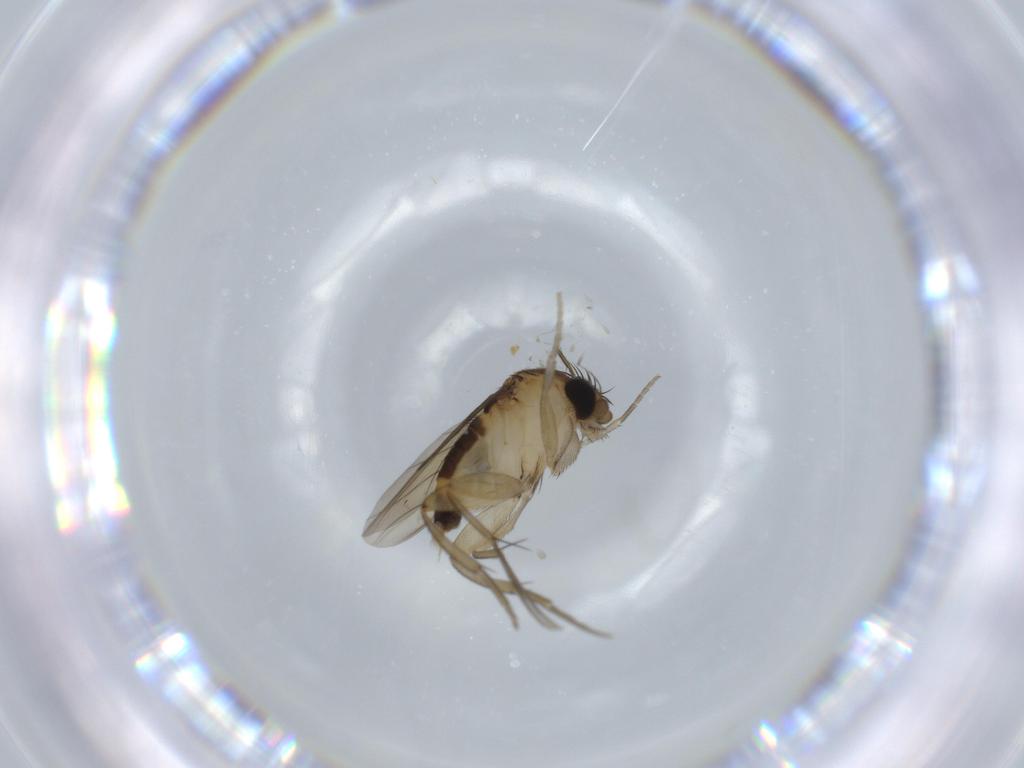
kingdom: Animalia
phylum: Arthropoda
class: Insecta
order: Diptera
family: Phoridae
